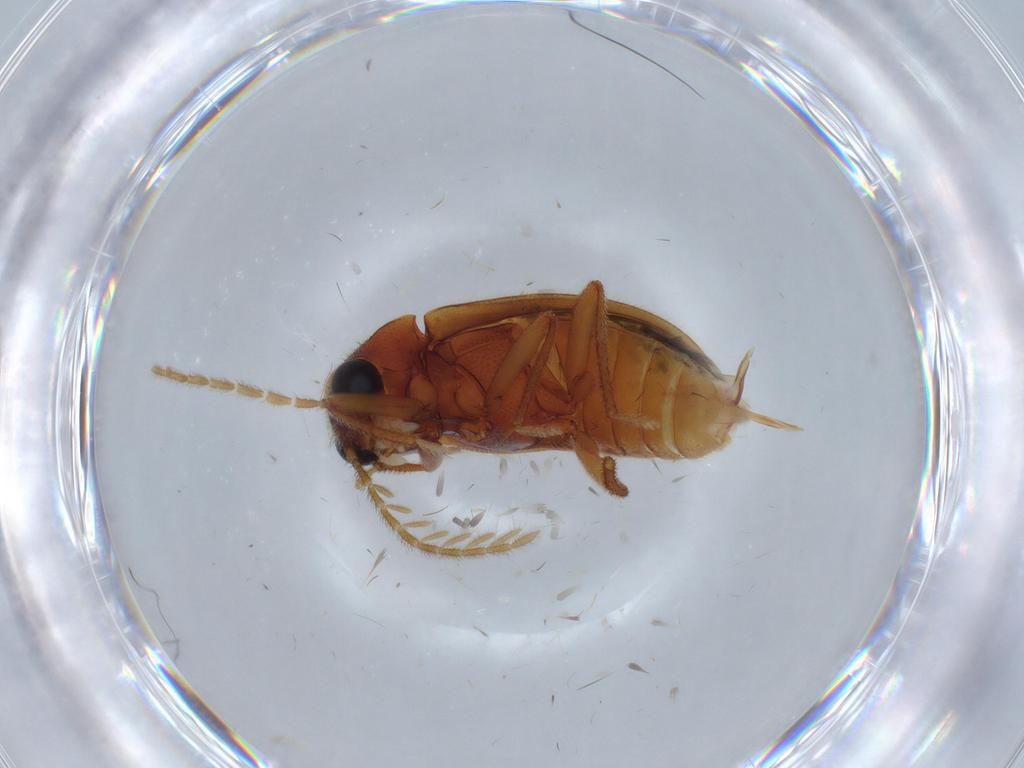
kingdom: Animalia
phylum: Arthropoda
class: Insecta
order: Coleoptera
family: Ptilodactylidae
